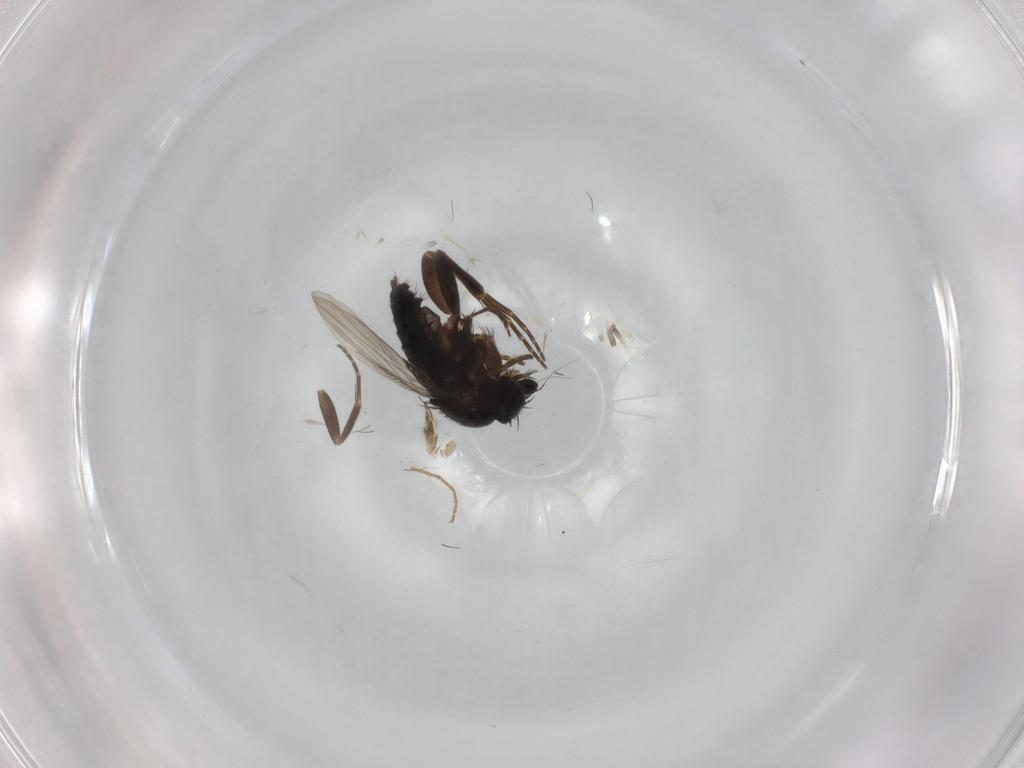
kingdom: Animalia
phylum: Arthropoda
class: Insecta
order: Diptera
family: Phoridae
